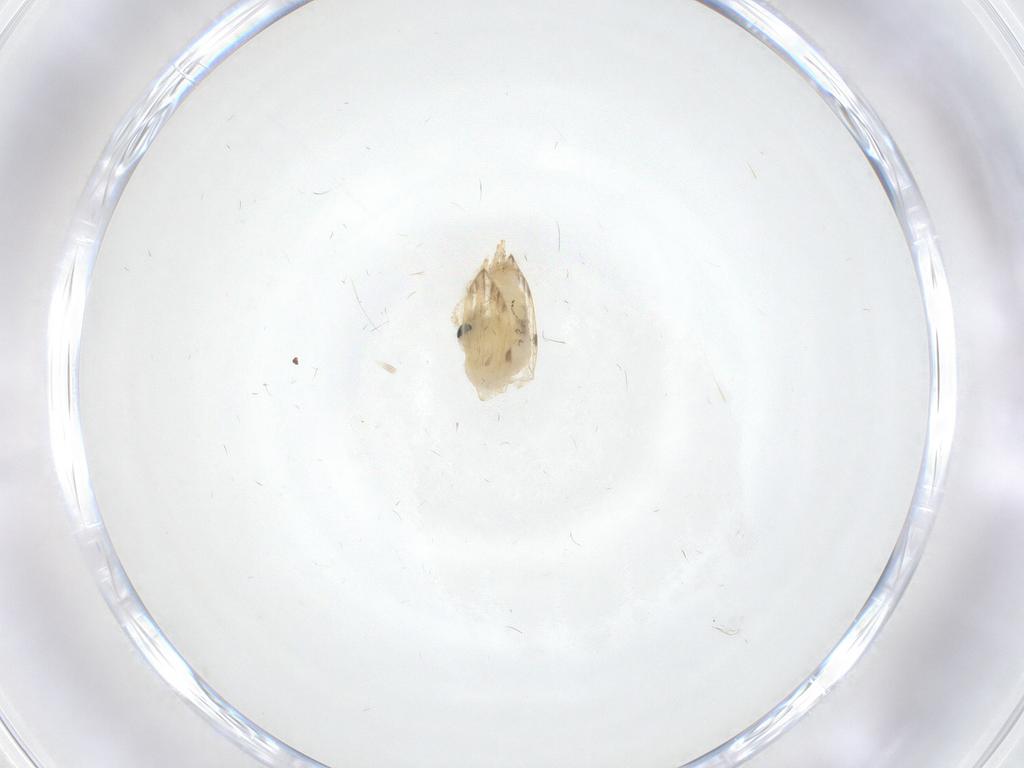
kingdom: Animalia
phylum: Arthropoda
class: Insecta
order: Diptera
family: Psychodidae
